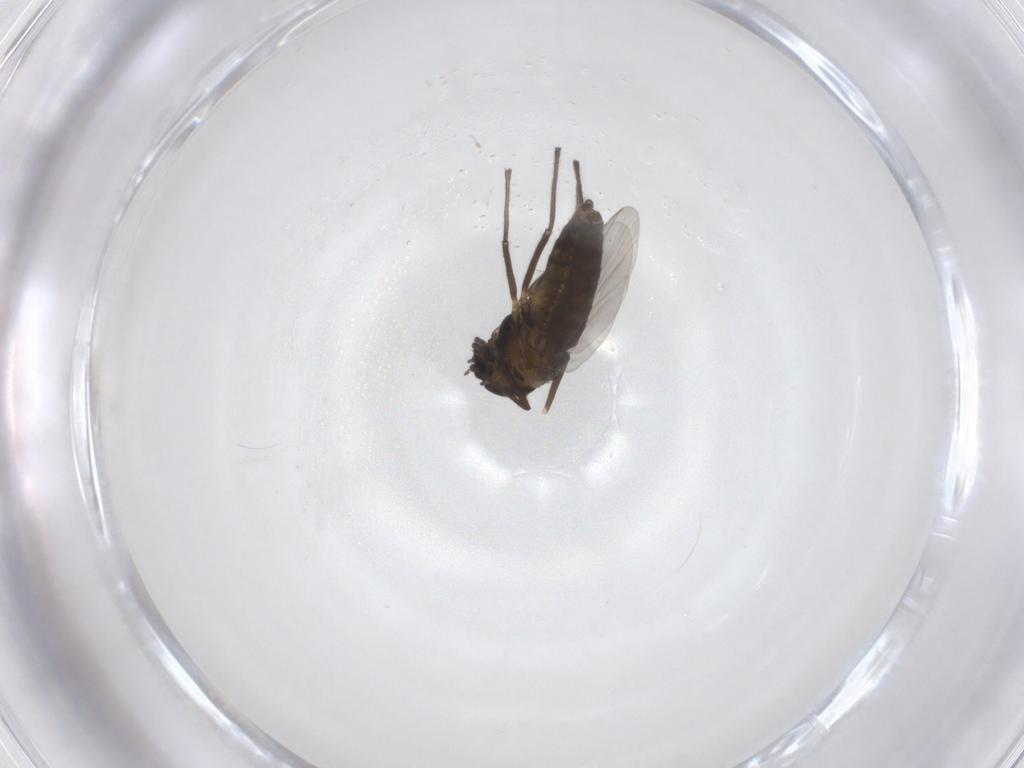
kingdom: Animalia
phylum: Arthropoda
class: Insecta
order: Diptera
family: Chironomidae
